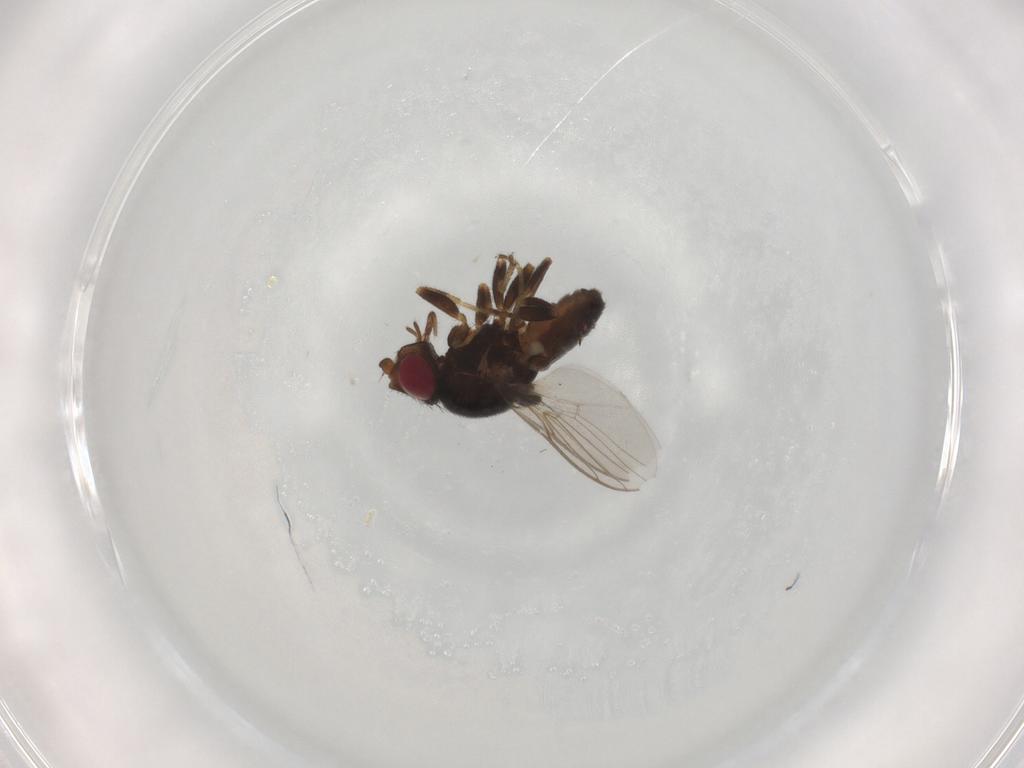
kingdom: Animalia
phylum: Arthropoda
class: Insecta
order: Diptera
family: Chloropidae
